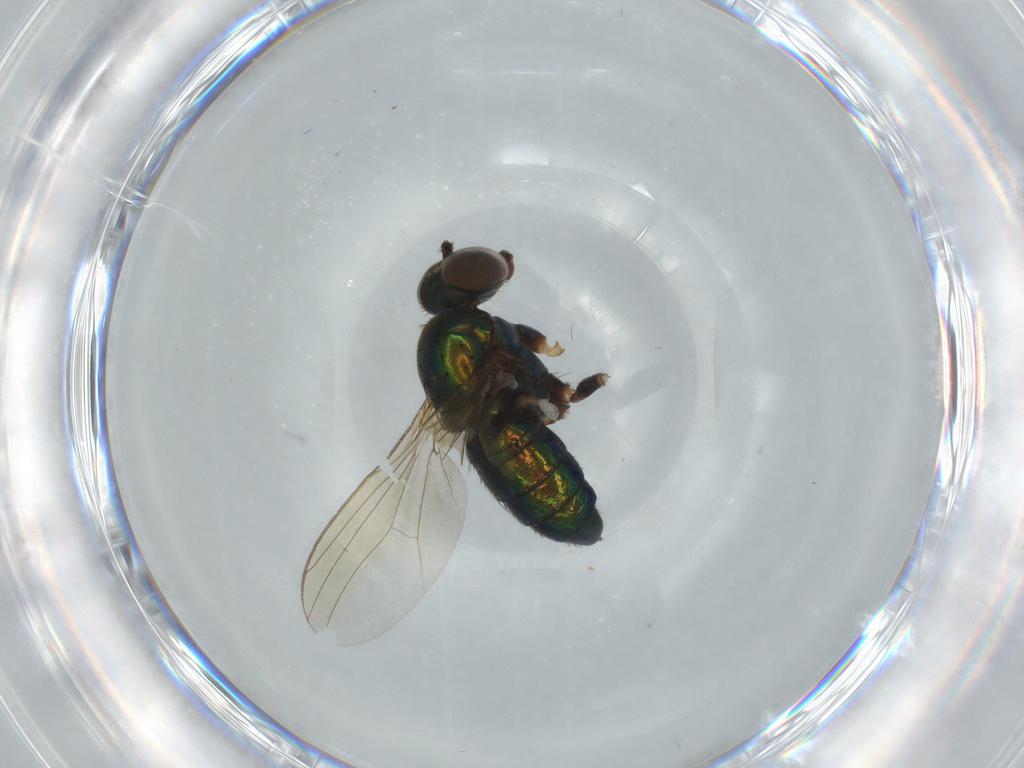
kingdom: Animalia
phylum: Arthropoda
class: Insecta
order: Diptera
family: Dolichopodidae
